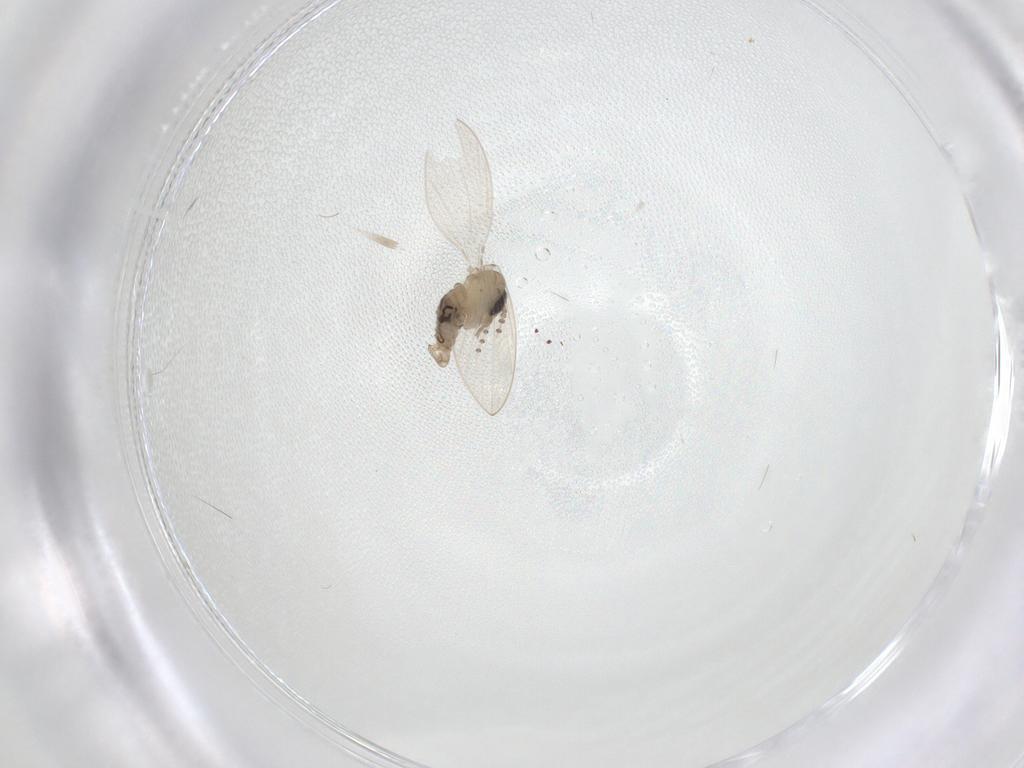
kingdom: Animalia
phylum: Arthropoda
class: Insecta
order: Diptera
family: Psychodidae
